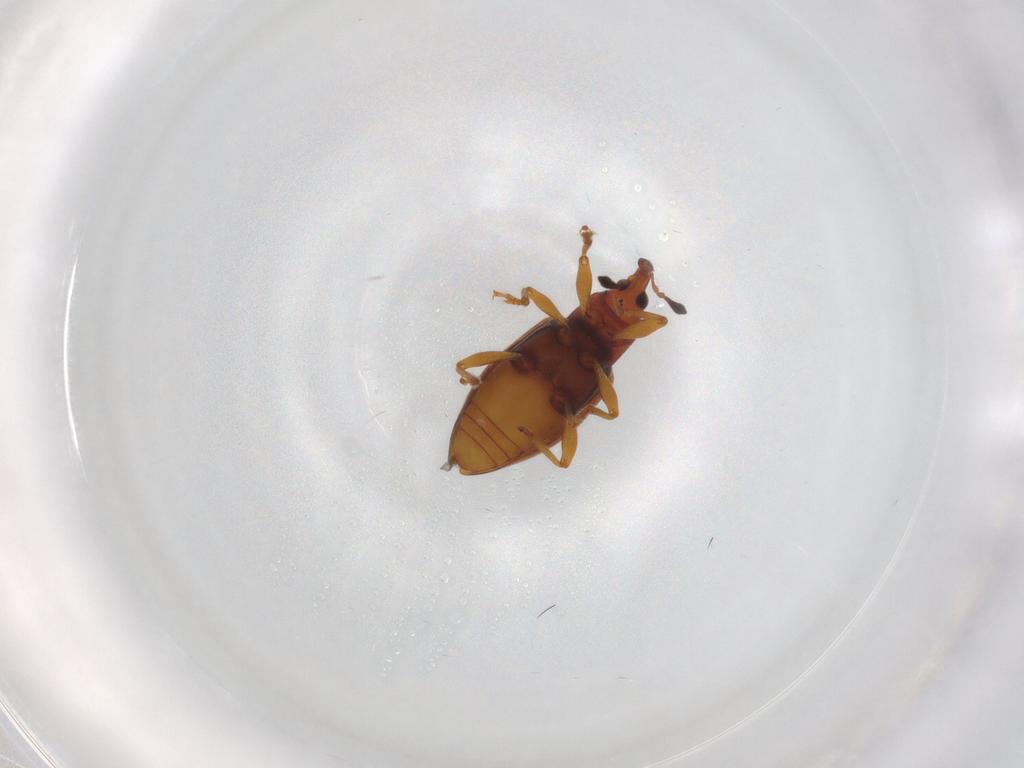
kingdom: Animalia
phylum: Arthropoda
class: Insecta
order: Coleoptera
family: Curculionidae
